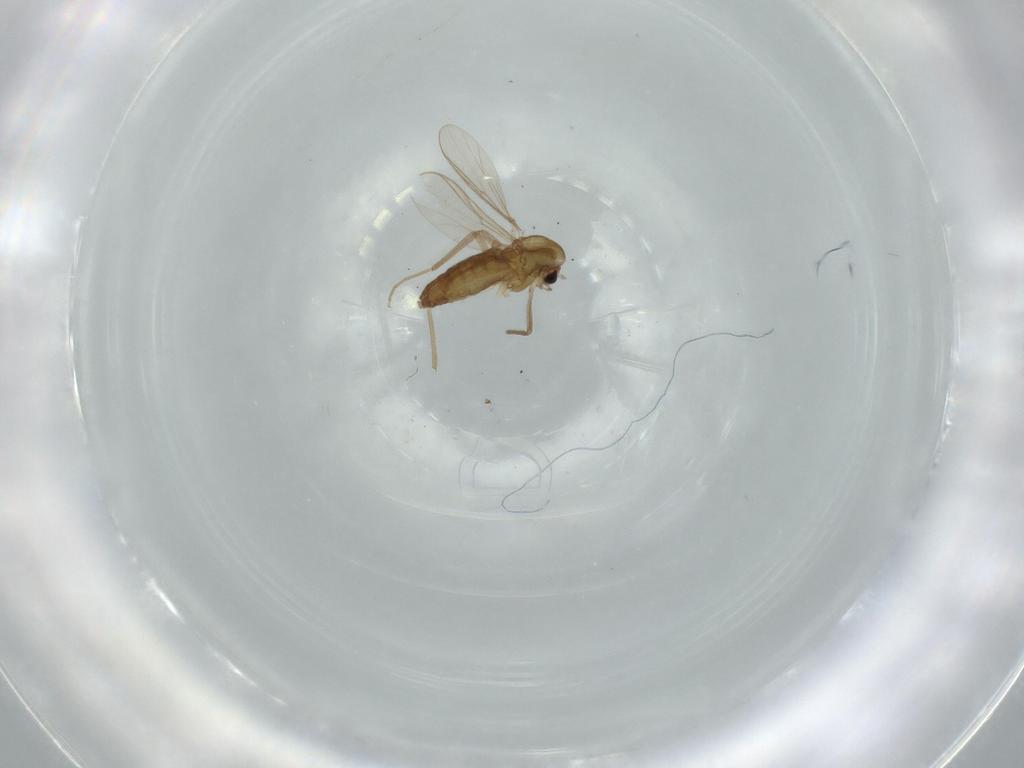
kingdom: Animalia
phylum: Arthropoda
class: Insecta
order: Diptera
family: Chironomidae
